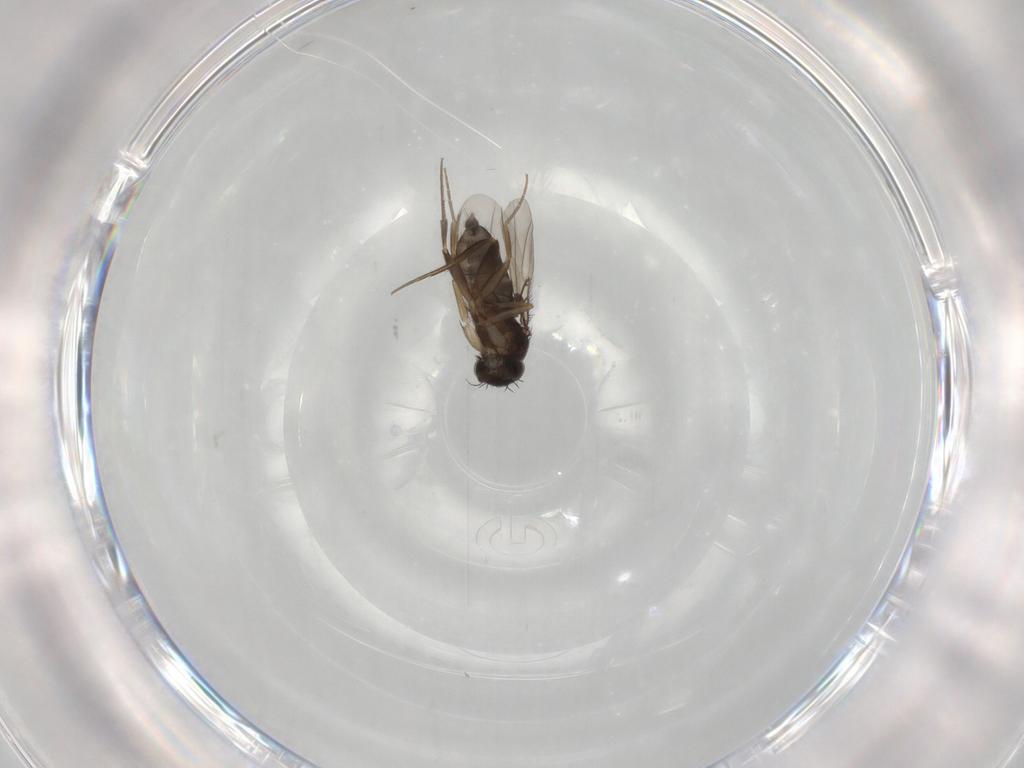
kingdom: Animalia
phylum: Arthropoda
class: Insecta
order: Diptera
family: Phoridae
